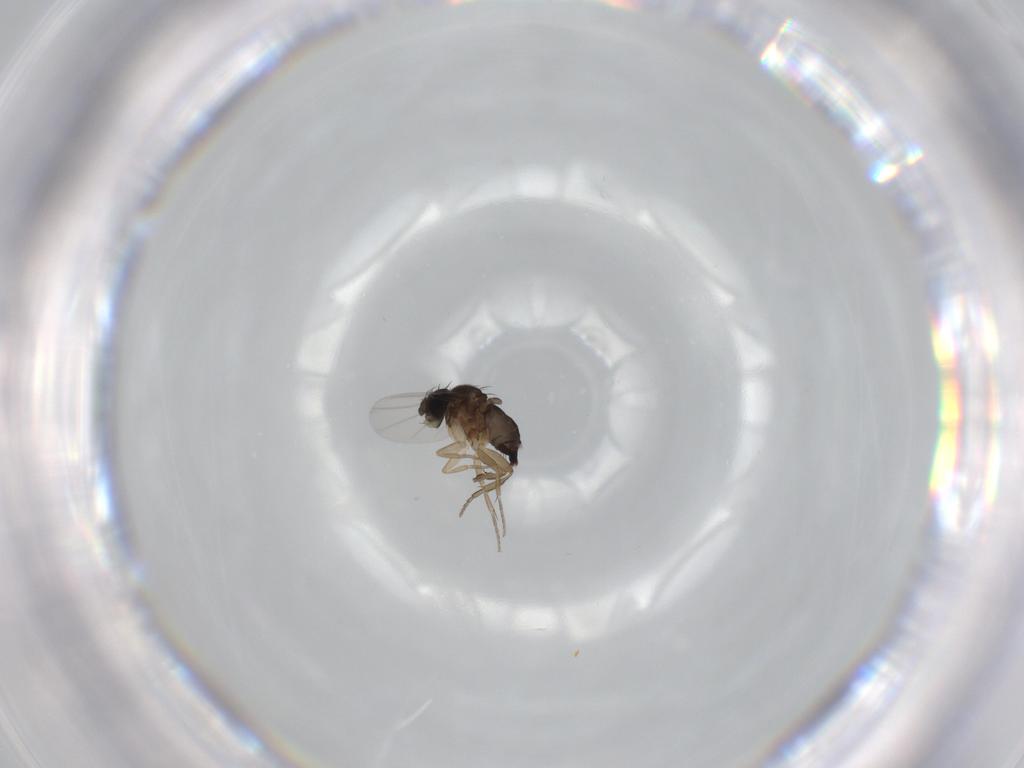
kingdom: Animalia
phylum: Arthropoda
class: Insecta
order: Diptera
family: Phoridae
